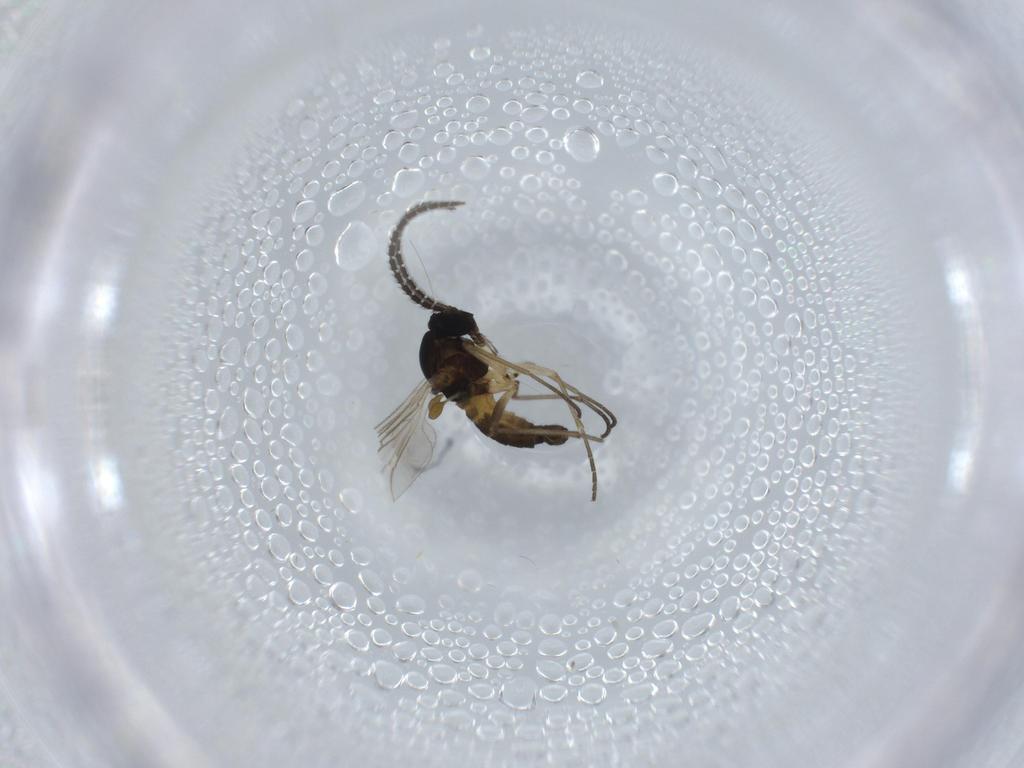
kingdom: Animalia
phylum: Arthropoda
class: Insecta
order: Diptera
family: Sciaridae
